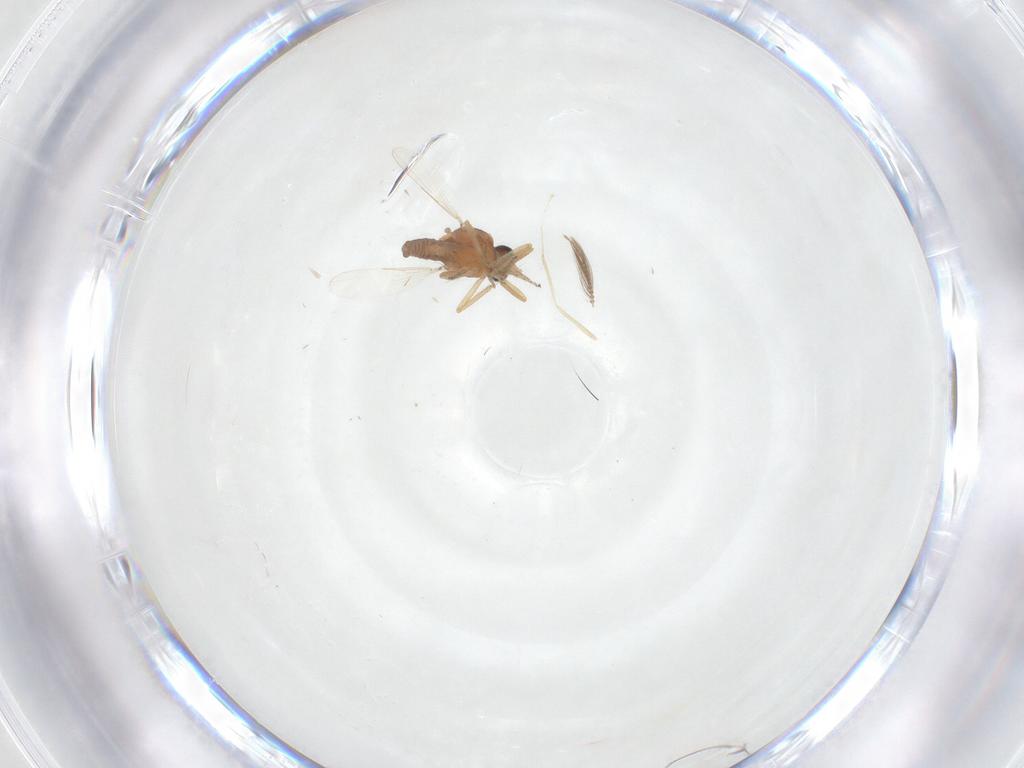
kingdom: Animalia
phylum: Arthropoda
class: Insecta
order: Diptera
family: Ceratopogonidae
